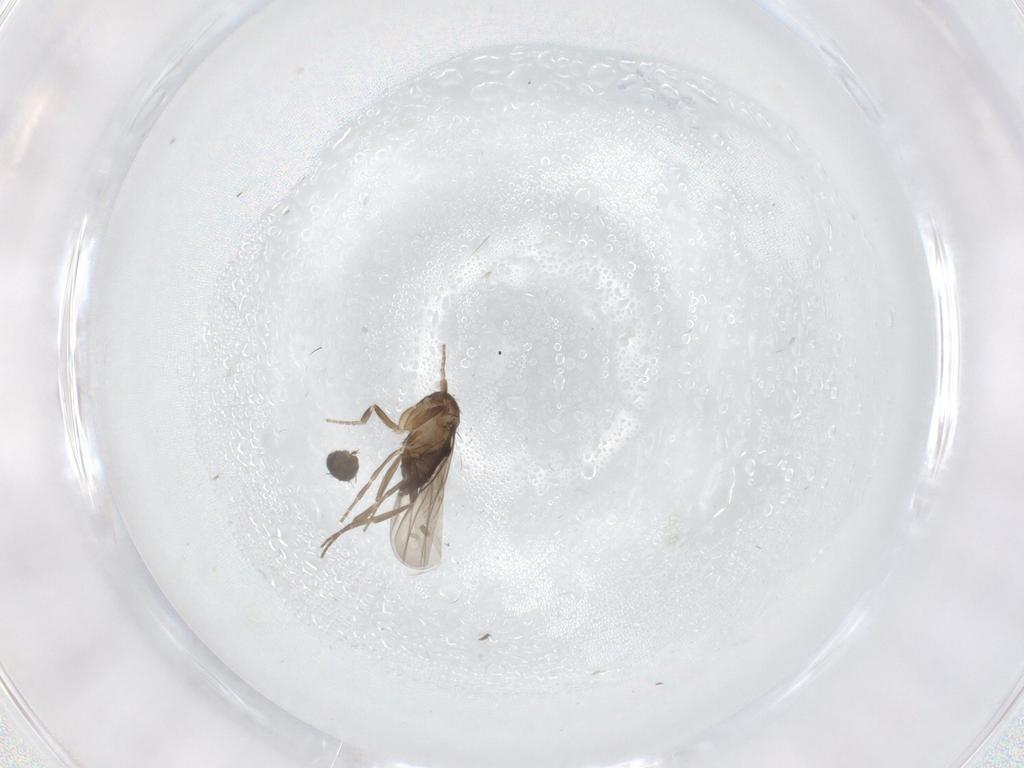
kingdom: Animalia
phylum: Arthropoda
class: Insecta
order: Diptera
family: Phoridae
